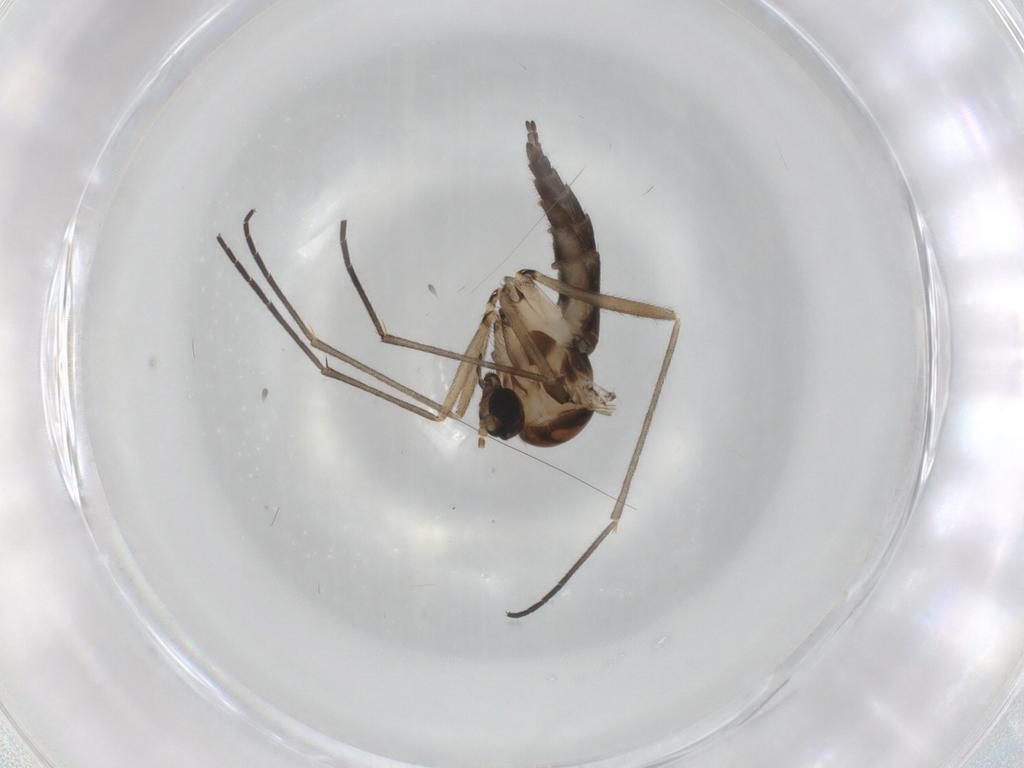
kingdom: Animalia
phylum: Arthropoda
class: Insecta
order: Diptera
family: Sciaridae
